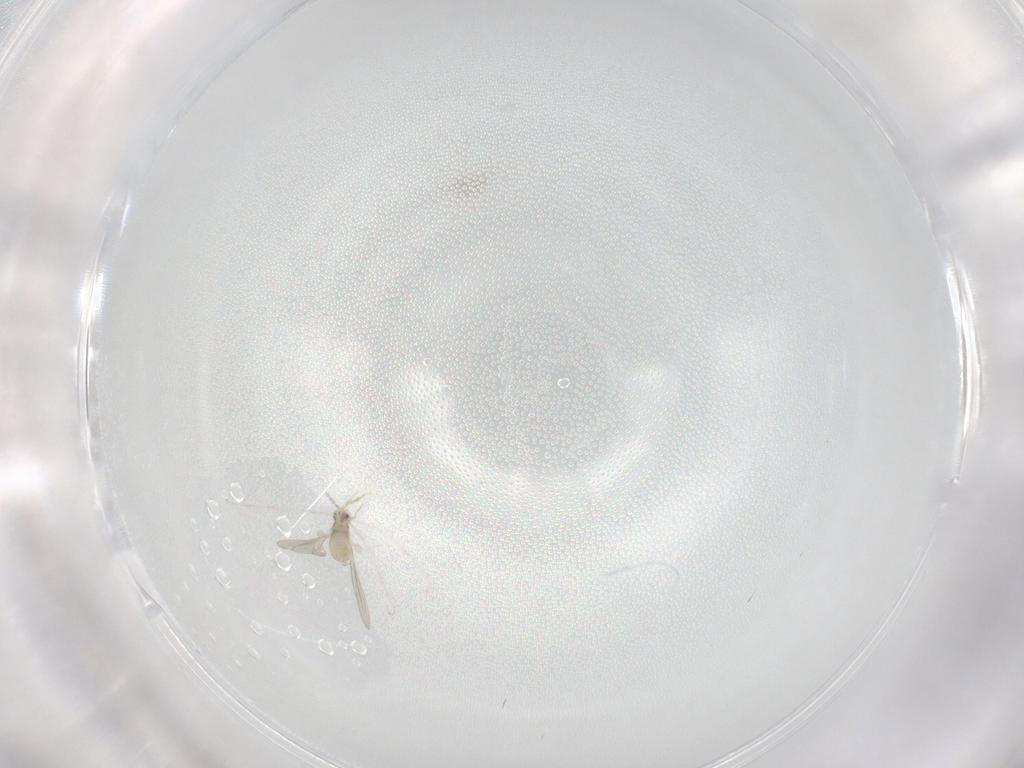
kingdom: Animalia
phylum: Arthropoda
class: Insecta
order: Diptera
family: Cecidomyiidae
